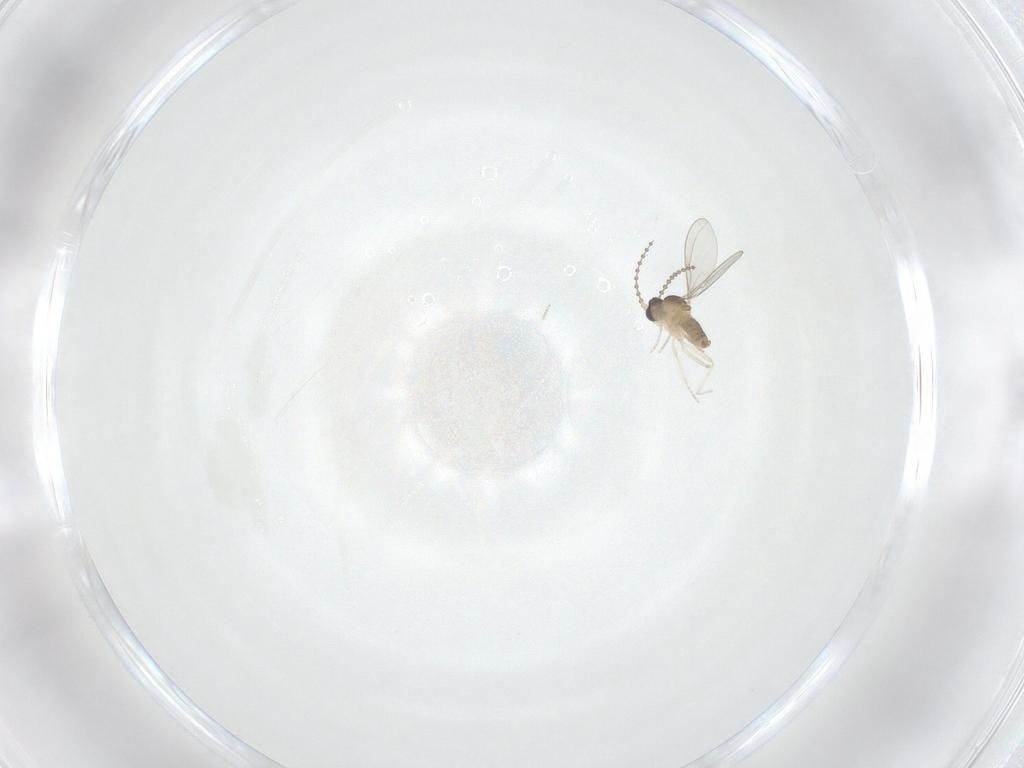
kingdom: Animalia
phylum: Arthropoda
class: Insecta
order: Diptera
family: Cecidomyiidae
